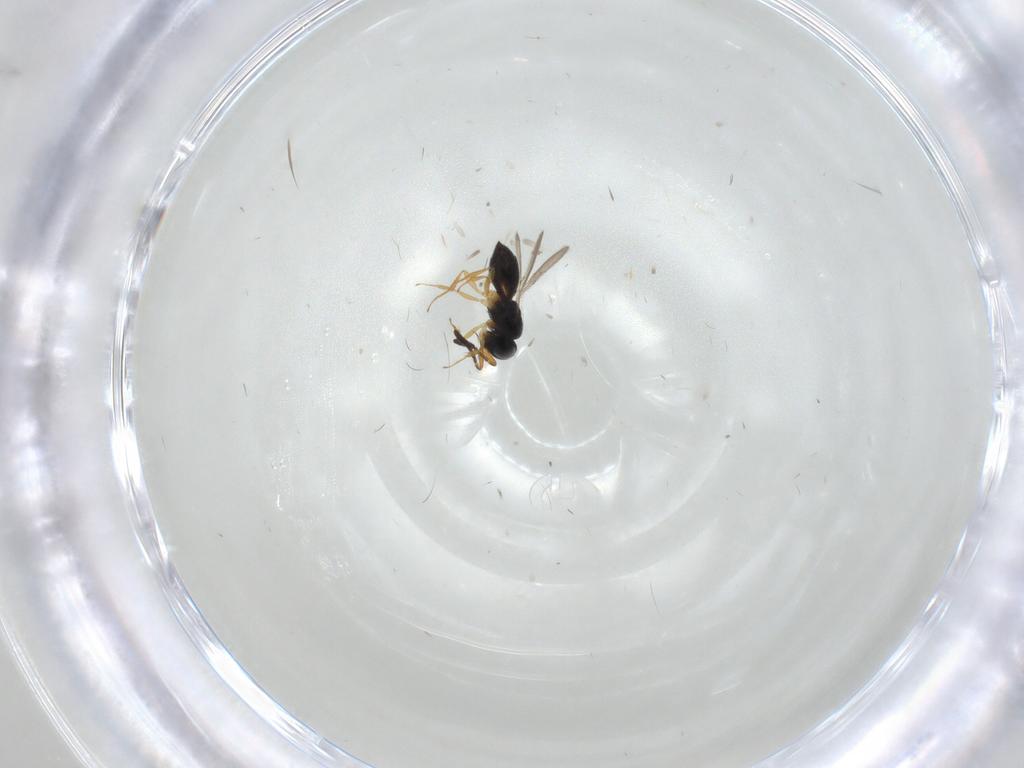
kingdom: Animalia
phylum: Arthropoda
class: Insecta
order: Hymenoptera
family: Scelionidae
